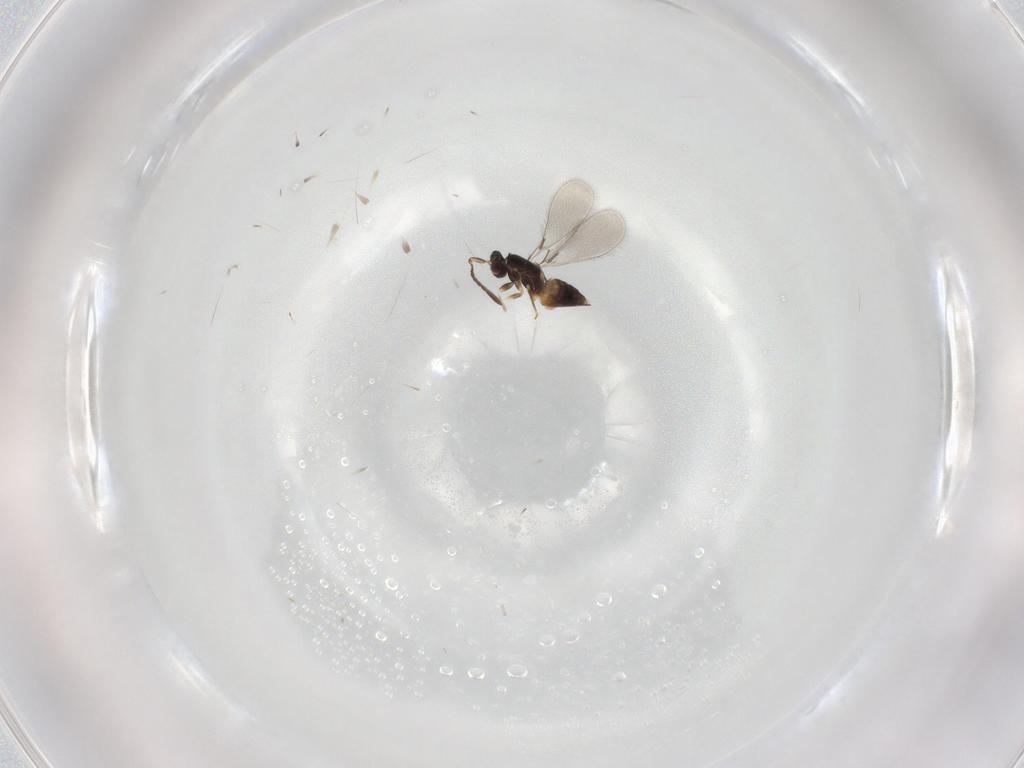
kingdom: Animalia
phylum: Arthropoda
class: Insecta
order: Hymenoptera
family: Mymaridae
